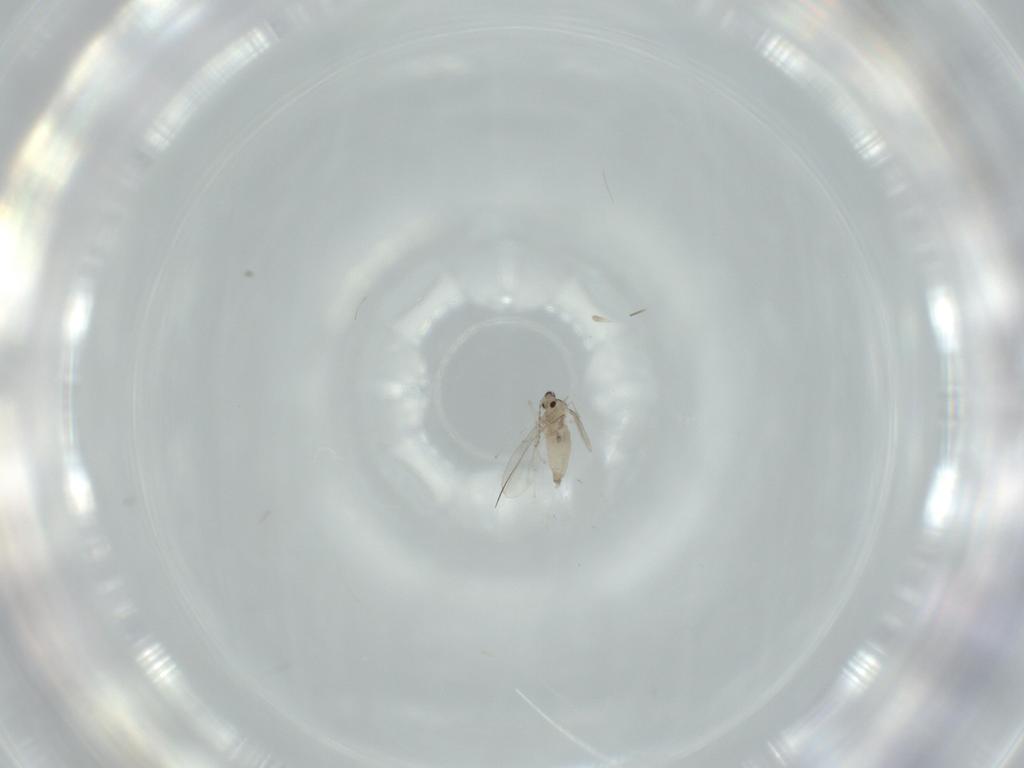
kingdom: Animalia
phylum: Arthropoda
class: Insecta
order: Diptera
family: Cecidomyiidae
